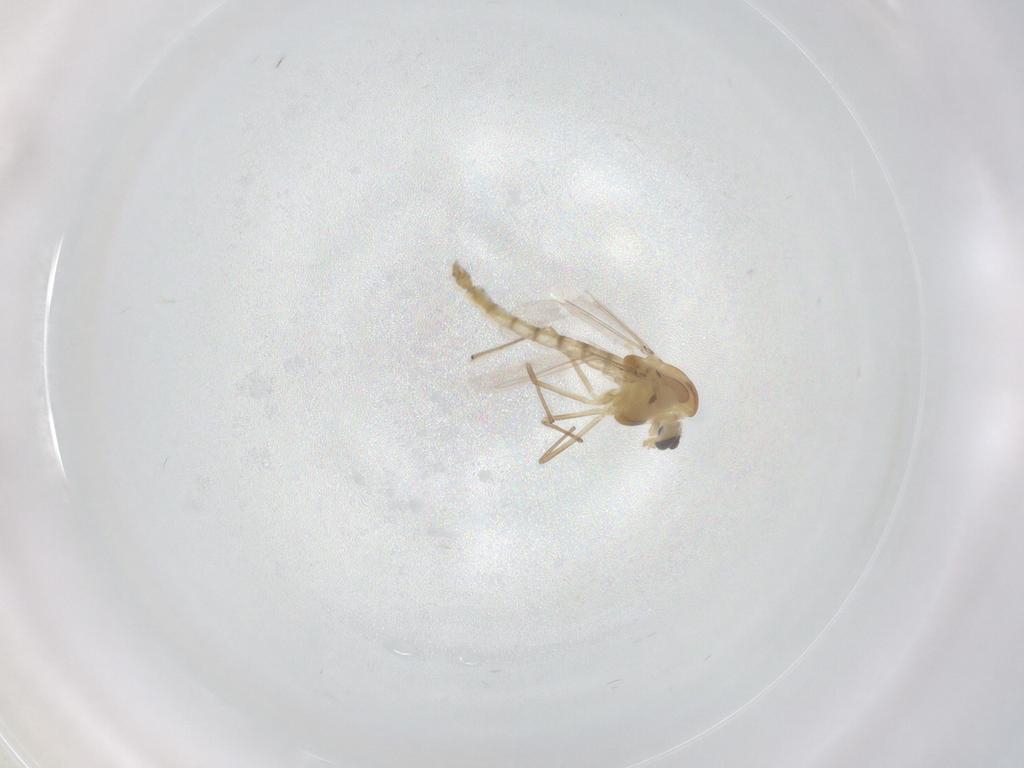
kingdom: Animalia
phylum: Arthropoda
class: Insecta
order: Diptera
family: Chironomidae
